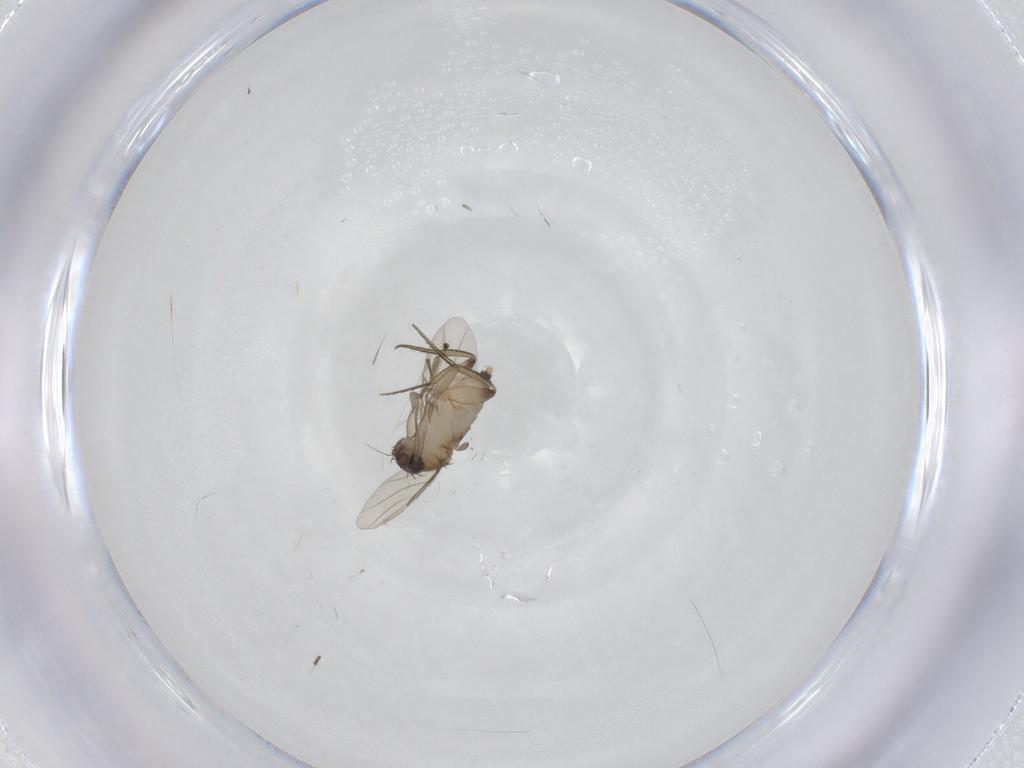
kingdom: Animalia
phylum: Arthropoda
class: Insecta
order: Diptera
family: Phoridae
